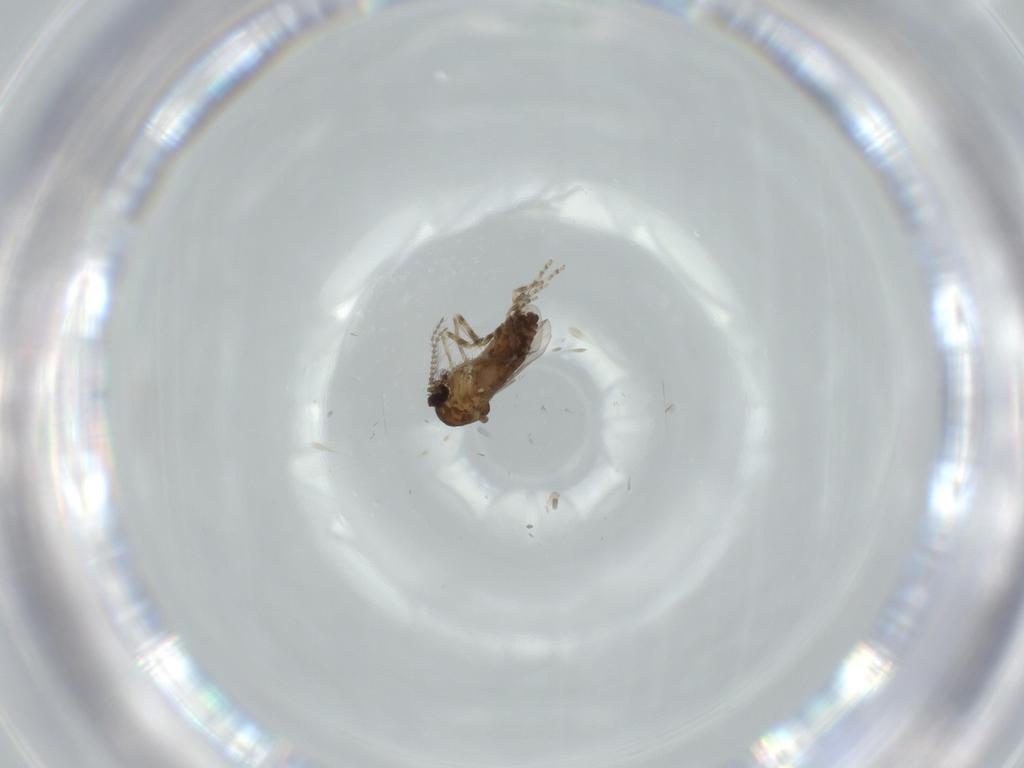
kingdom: Animalia
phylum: Arthropoda
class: Insecta
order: Diptera
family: Ceratopogonidae
